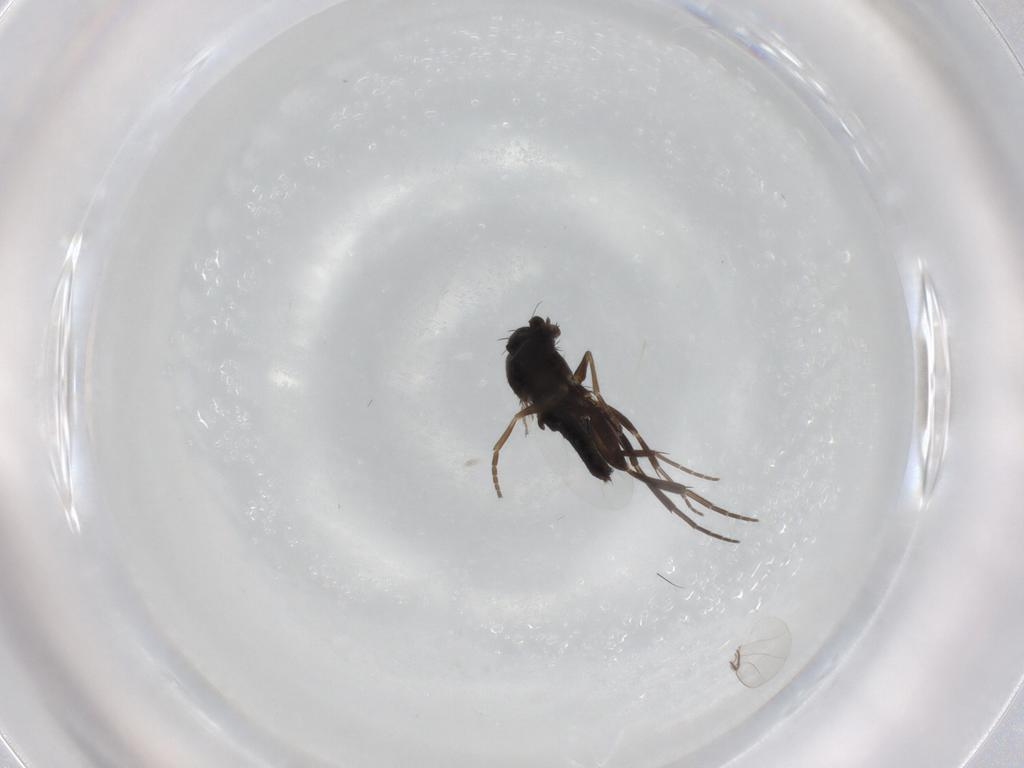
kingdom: Animalia
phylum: Arthropoda
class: Insecta
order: Diptera
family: Phoridae
